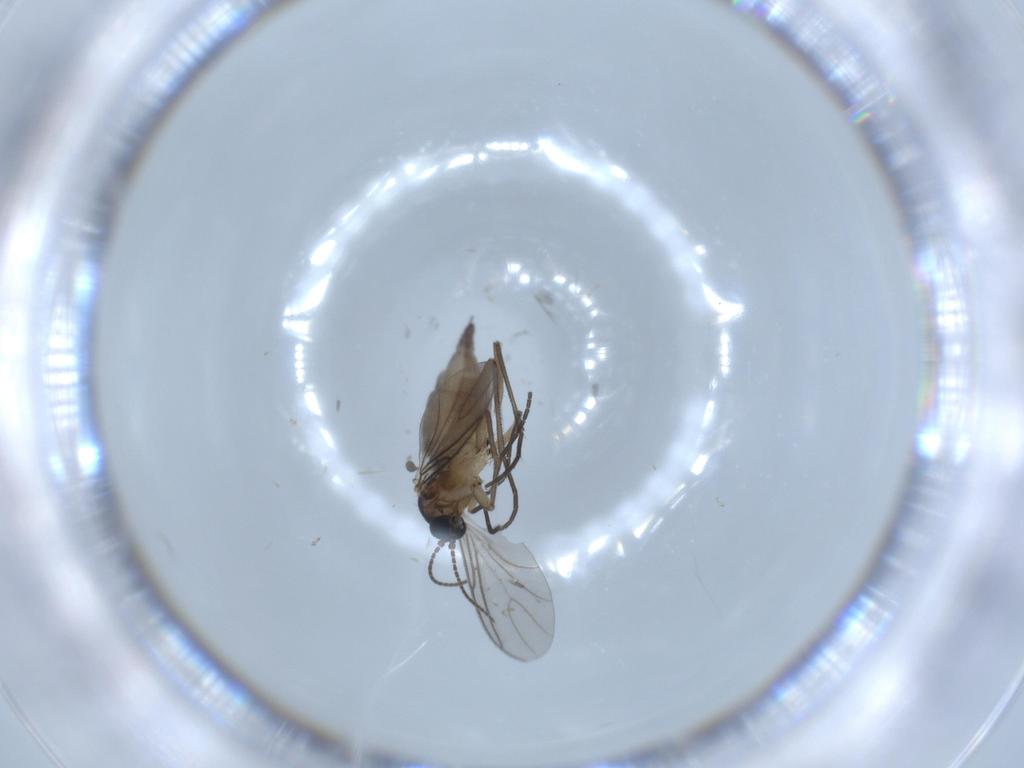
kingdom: Animalia
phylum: Arthropoda
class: Insecta
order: Diptera
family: Sciaridae
